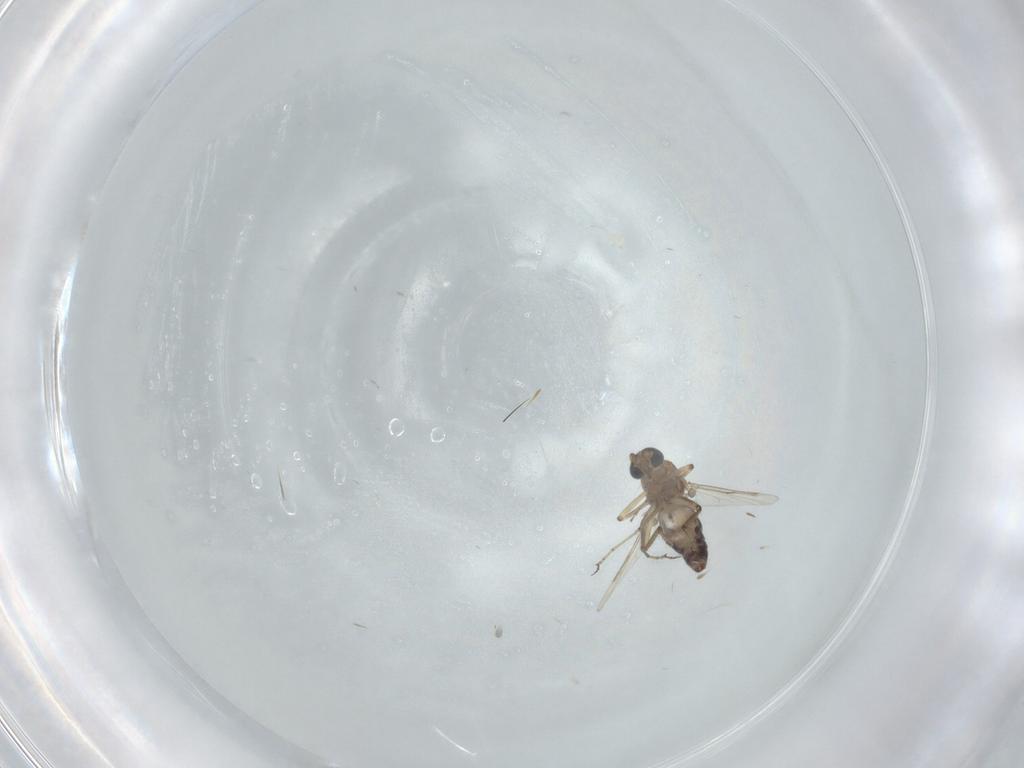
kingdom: Animalia
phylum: Arthropoda
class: Insecta
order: Diptera
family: Ceratopogonidae
